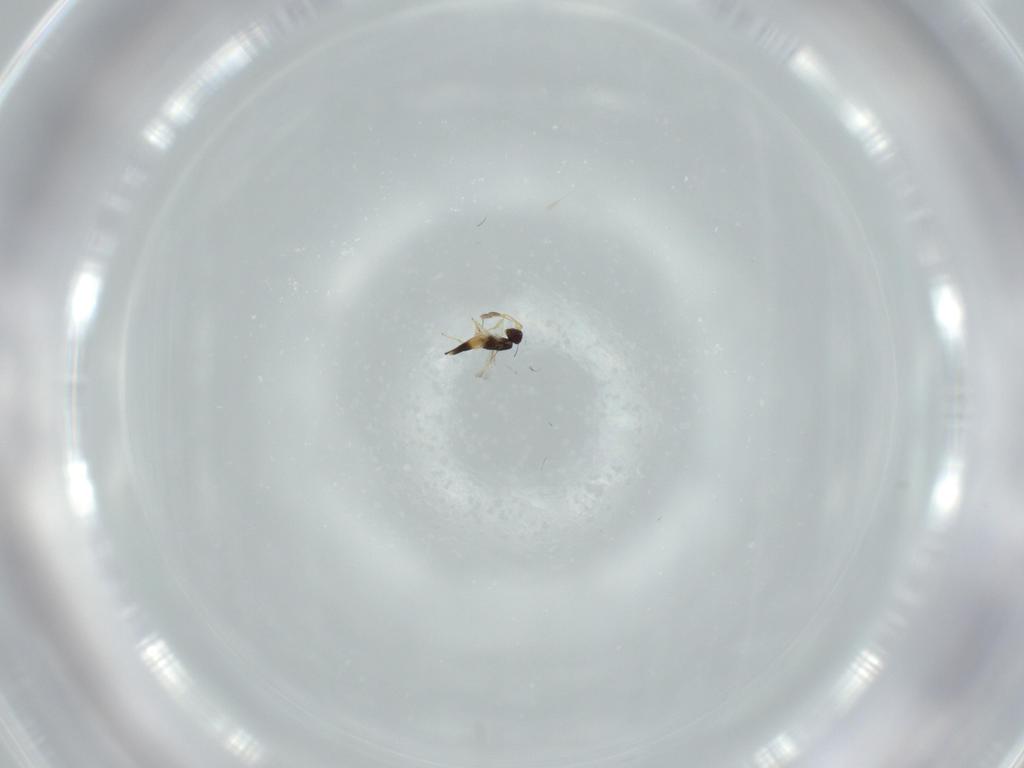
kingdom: Animalia
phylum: Arthropoda
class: Insecta
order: Hymenoptera
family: Mymaridae
